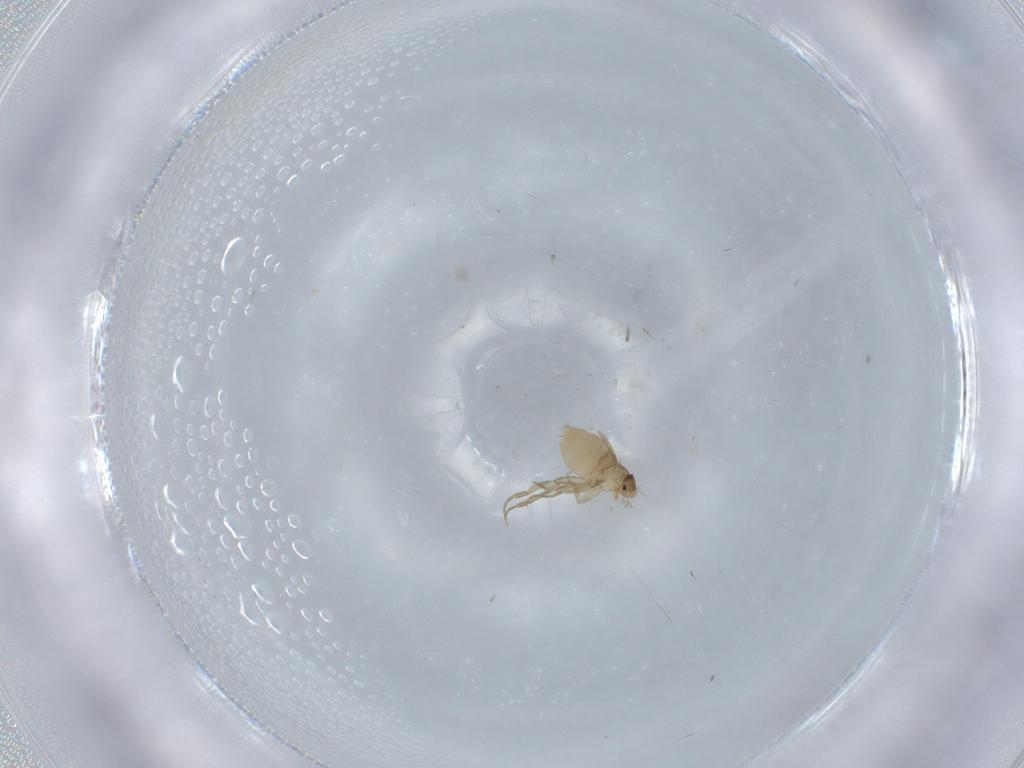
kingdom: Animalia
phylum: Arthropoda
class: Insecta
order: Diptera
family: Phoridae
